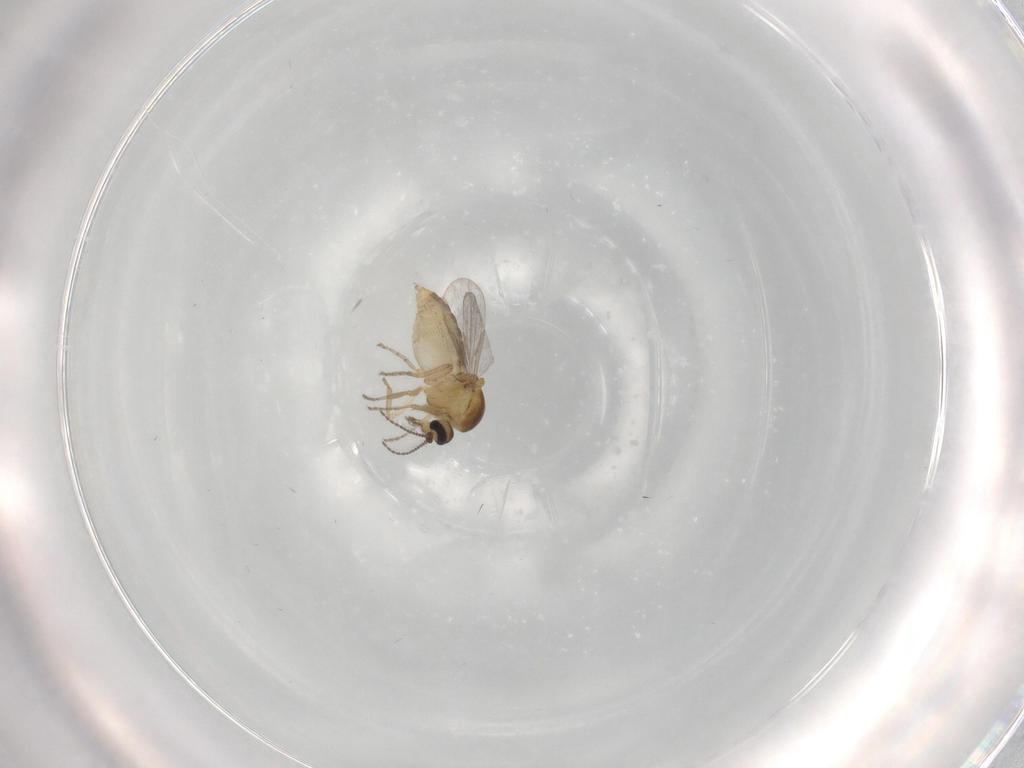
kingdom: Animalia
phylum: Arthropoda
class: Insecta
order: Diptera
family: Ceratopogonidae
